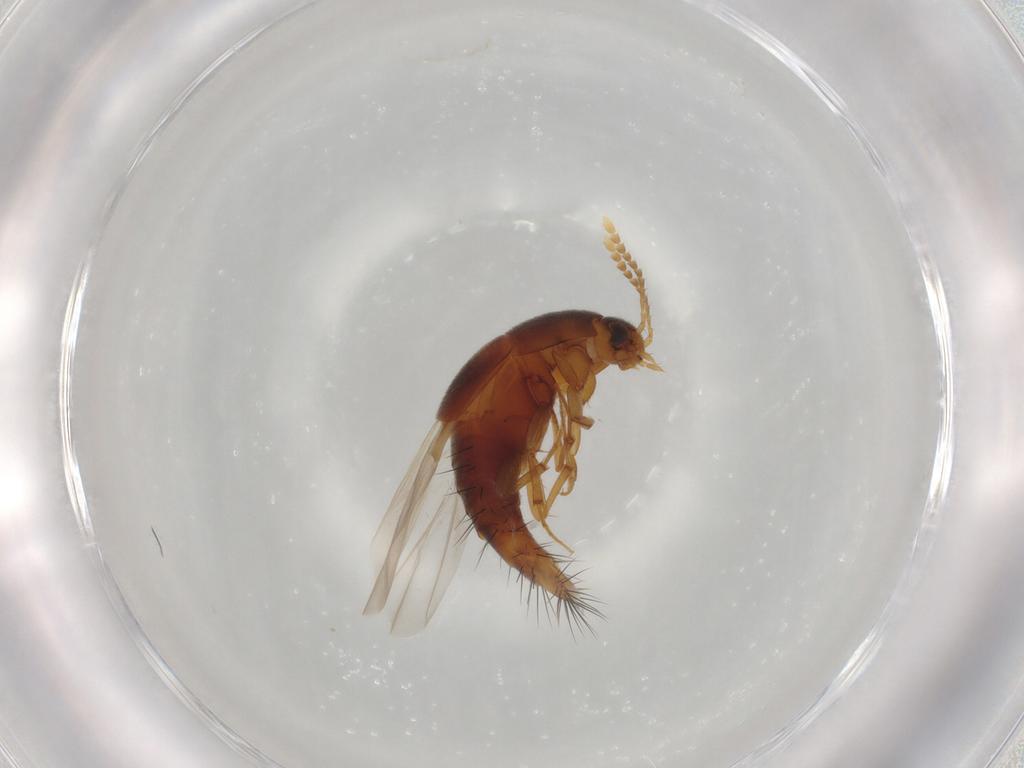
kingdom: Animalia
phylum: Arthropoda
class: Insecta
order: Coleoptera
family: Staphylinidae
